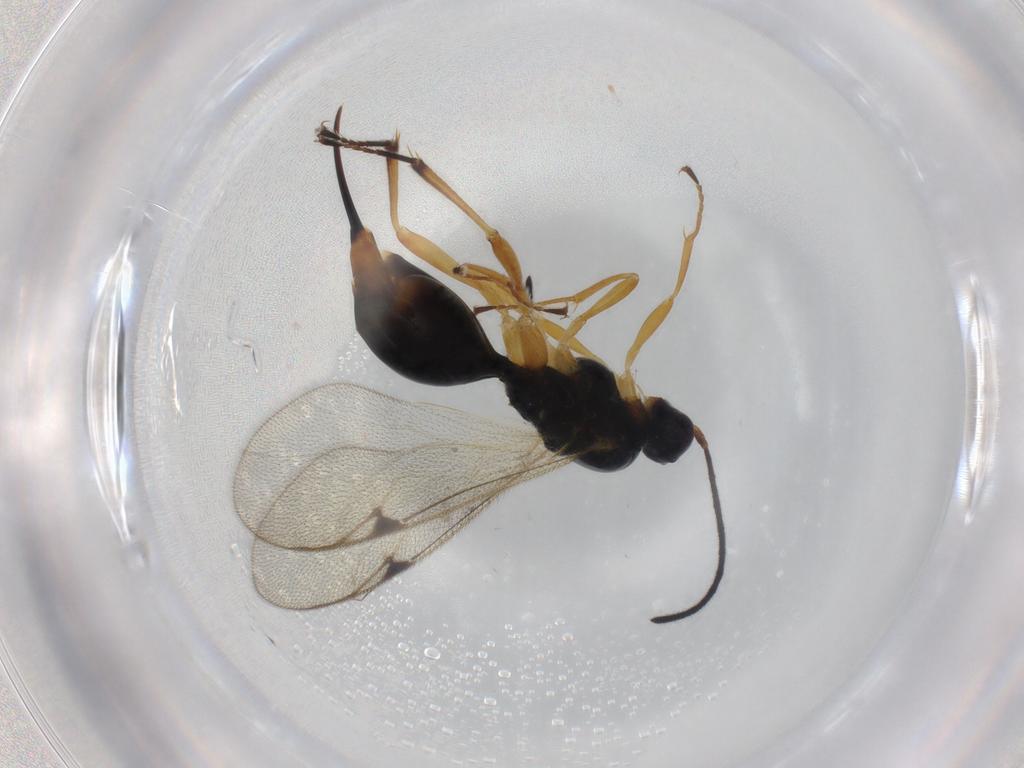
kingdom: Animalia
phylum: Arthropoda
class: Insecta
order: Hymenoptera
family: Proctotrupidae
